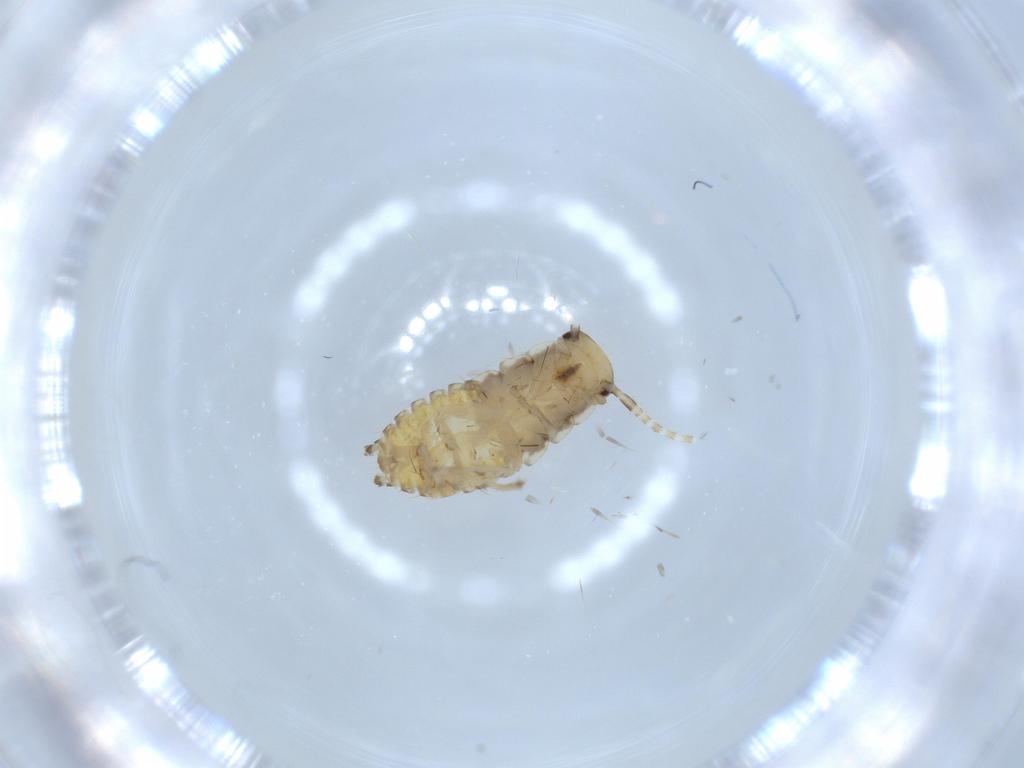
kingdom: Animalia
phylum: Arthropoda
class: Insecta
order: Blattodea
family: Ectobiidae
